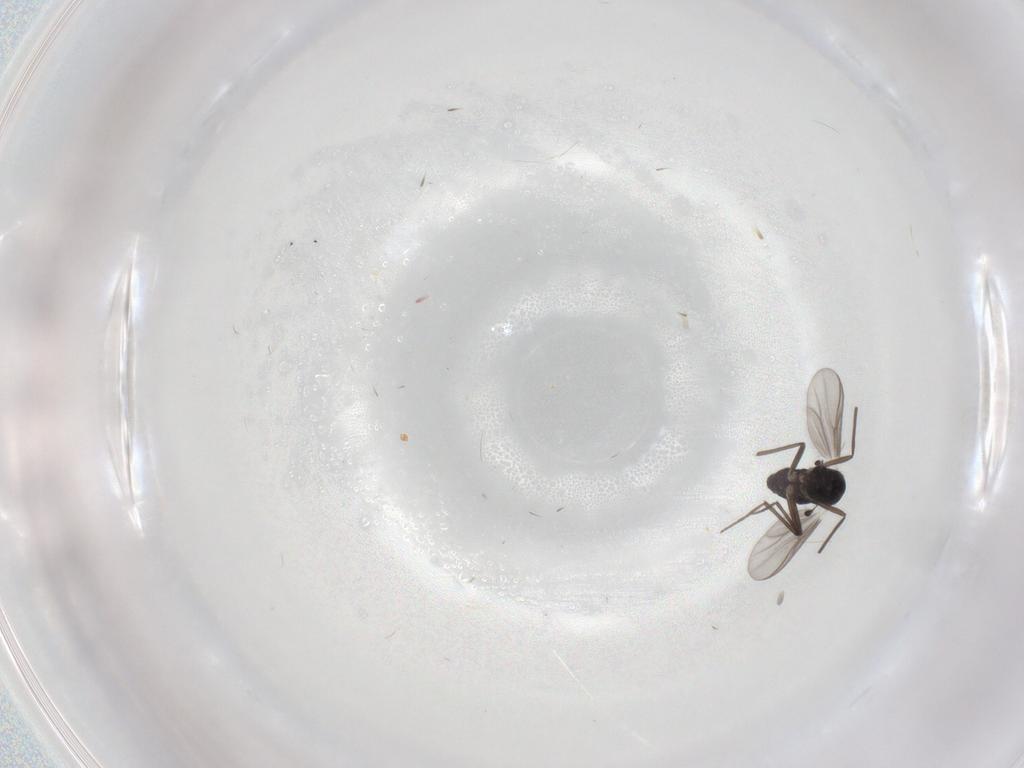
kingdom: Animalia
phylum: Arthropoda
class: Insecta
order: Diptera
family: Chironomidae
